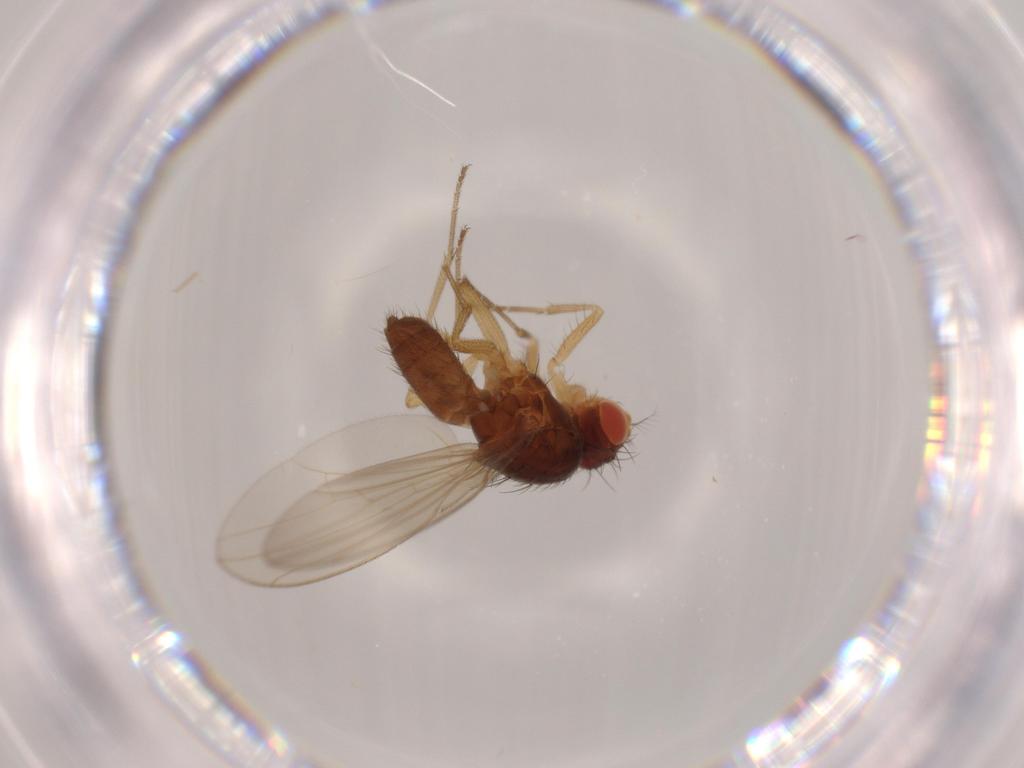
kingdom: Animalia
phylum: Arthropoda
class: Insecta
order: Diptera
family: Drosophilidae
